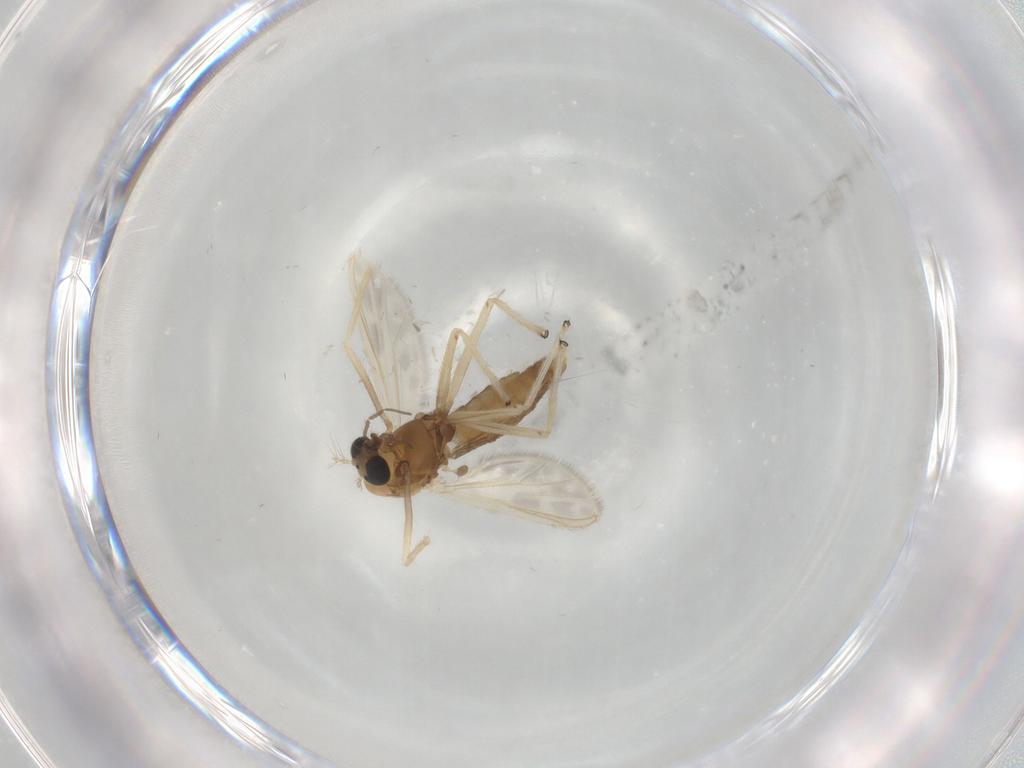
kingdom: Animalia
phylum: Arthropoda
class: Insecta
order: Diptera
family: Chironomidae
